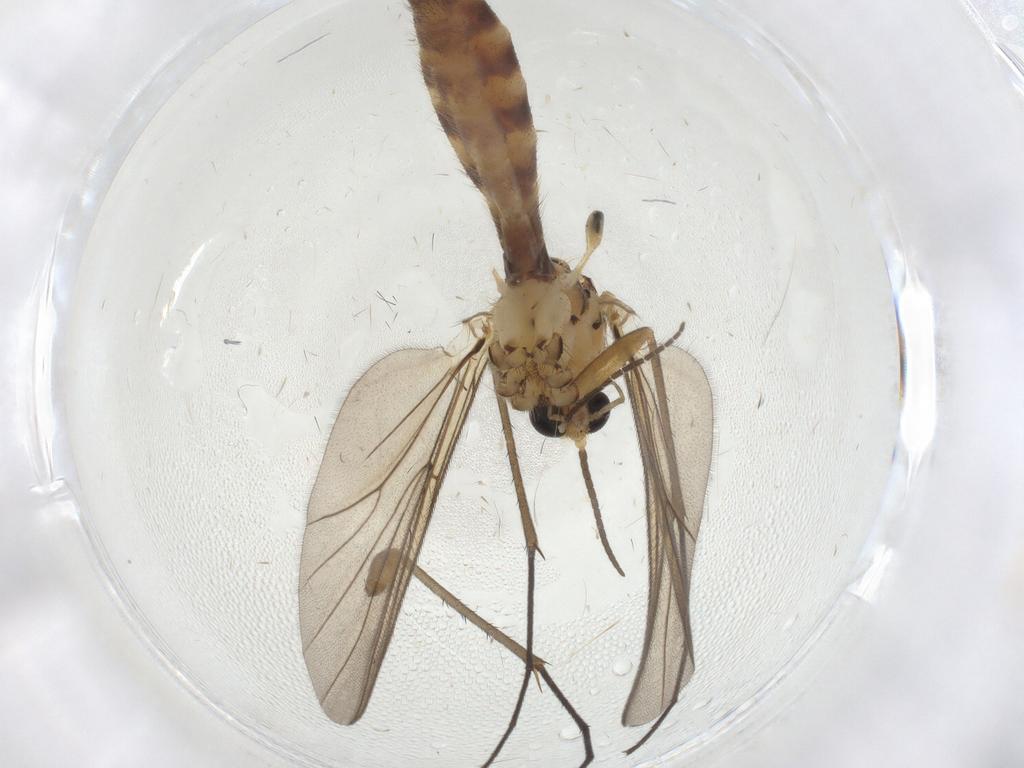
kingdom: Animalia
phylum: Arthropoda
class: Insecta
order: Diptera
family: Mycetophilidae
